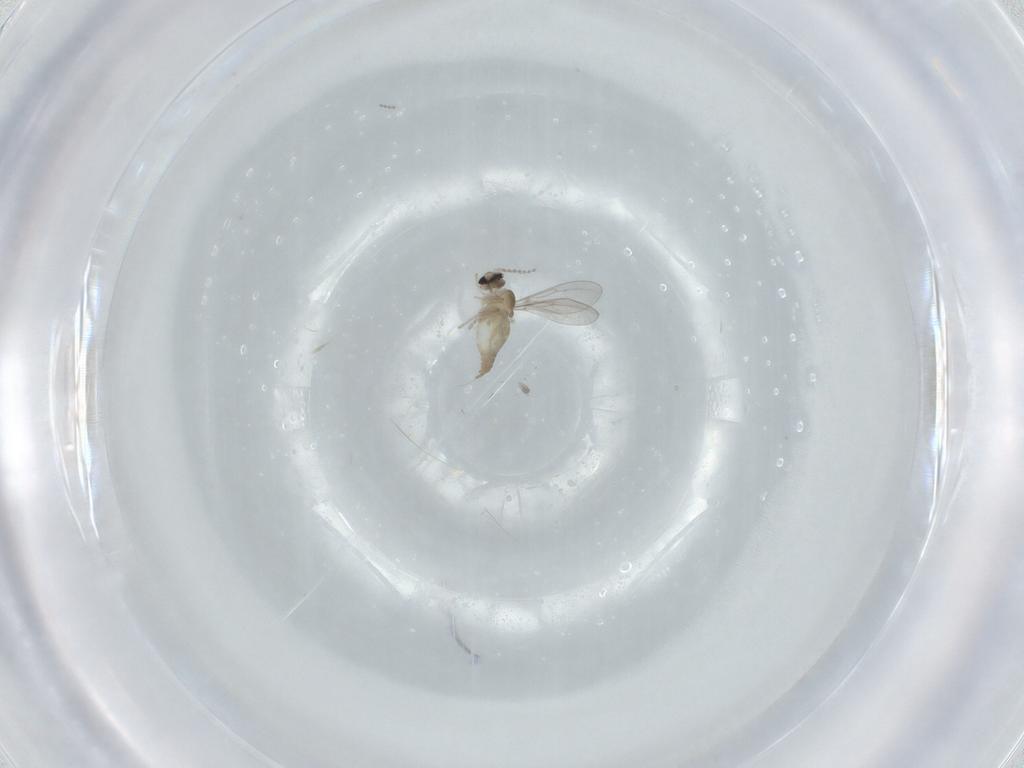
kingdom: Animalia
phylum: Arthropoda
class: Insecta
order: Diptera
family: Cecidomyiidae
